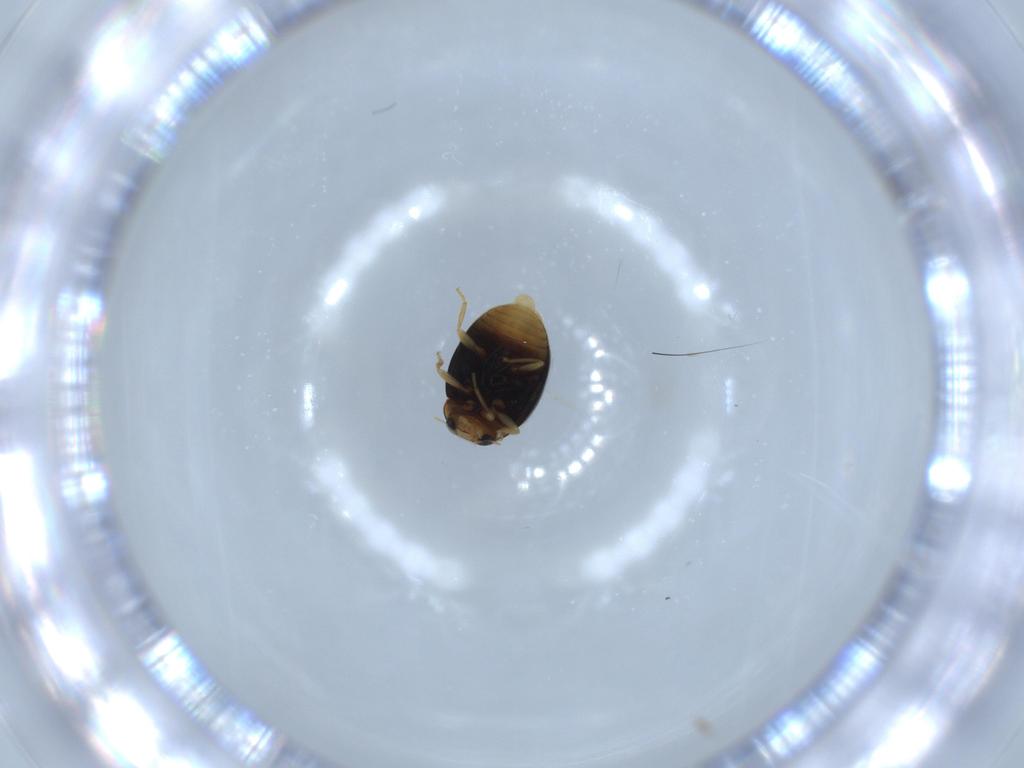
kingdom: Animalia
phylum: Arthropoda
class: Insecta
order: Coleoptera
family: Coccinellidae
